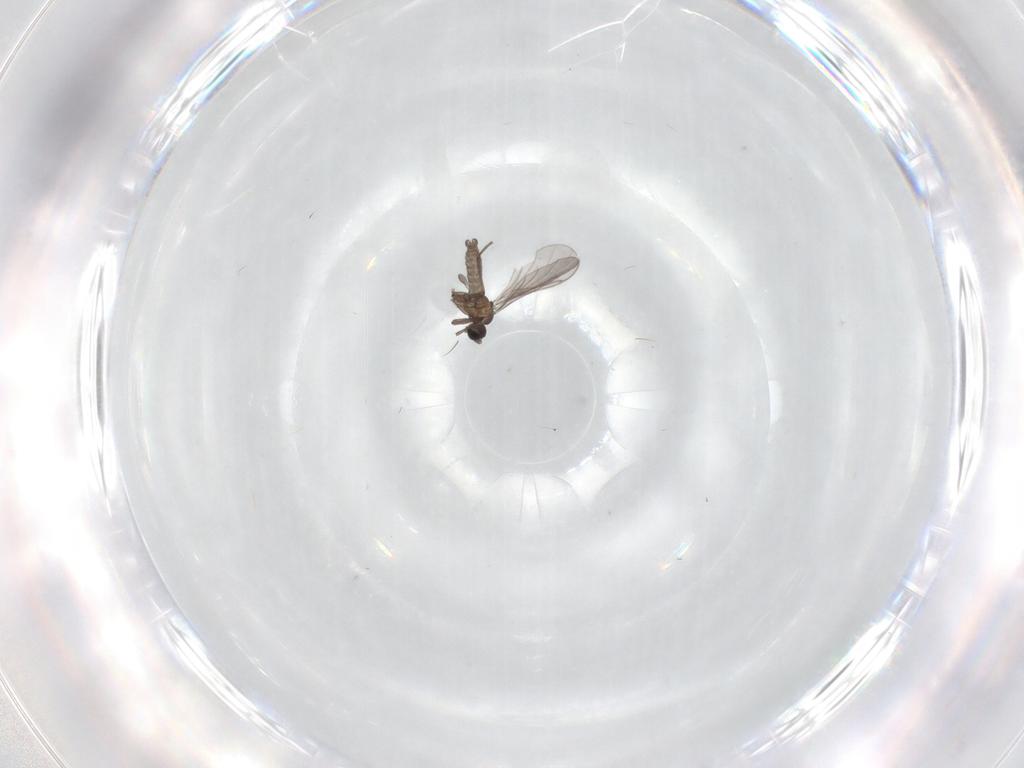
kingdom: Animalia
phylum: Arthropoda
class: Insecta
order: Diptera
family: Sciaridae
